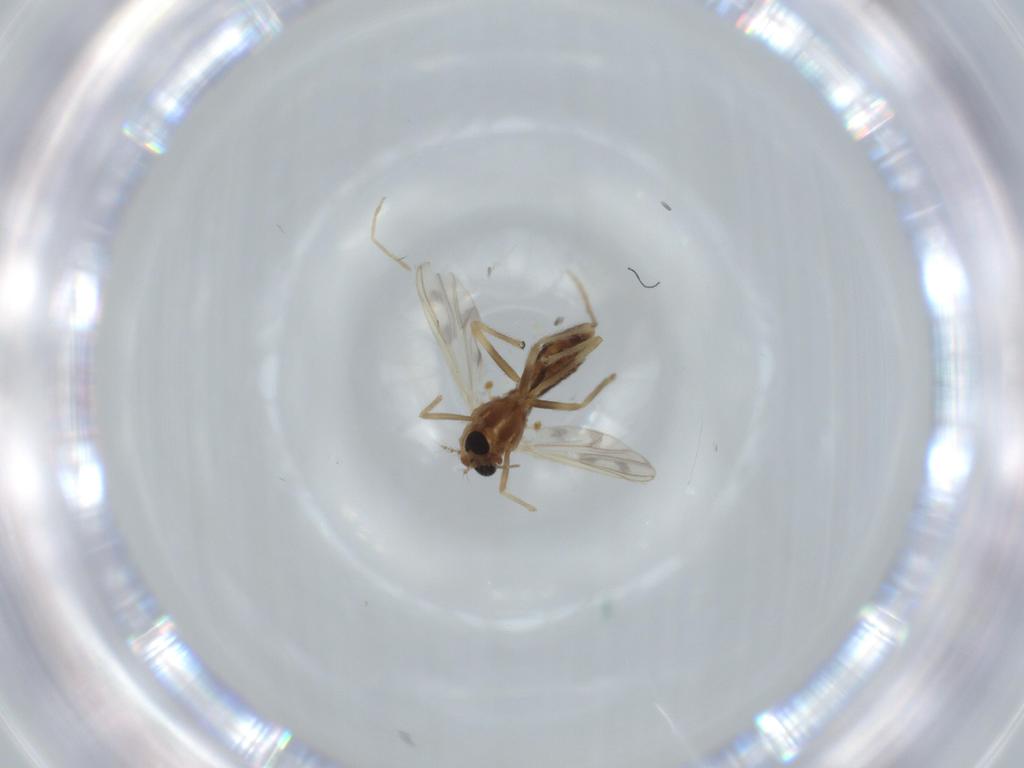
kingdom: Animalia
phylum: Arthropoda
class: Insecta
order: Diptera
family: Chironomidae
